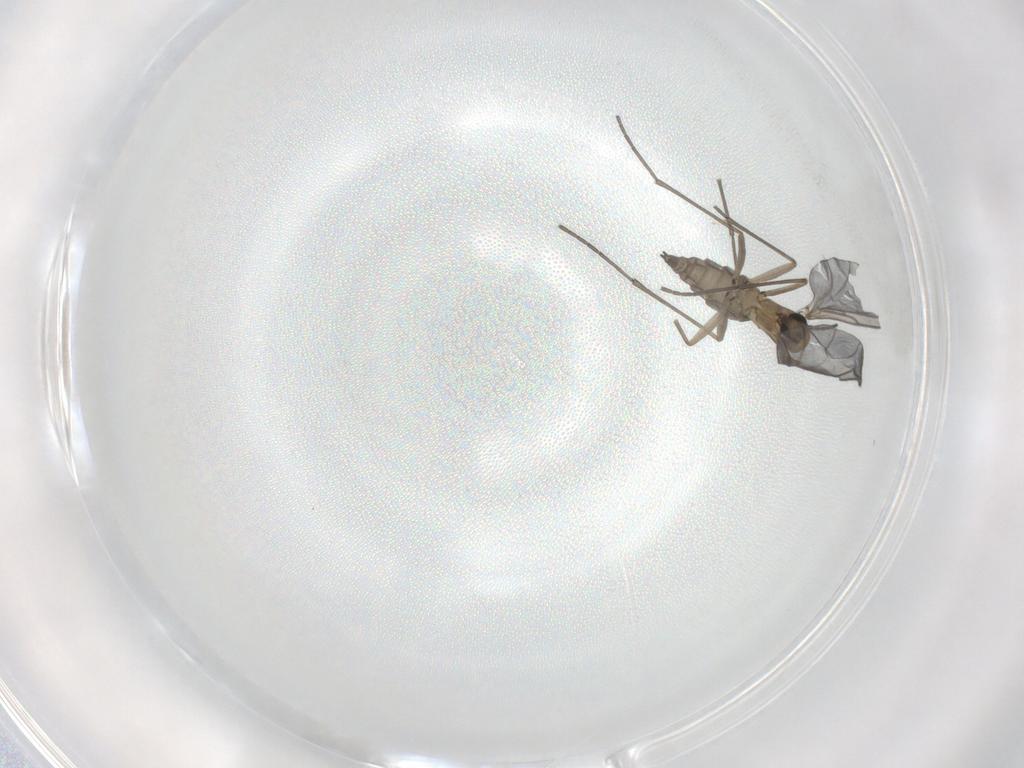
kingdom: Animalia
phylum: Arthropoda
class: Insecta
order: Diptera
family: Sciaridae
